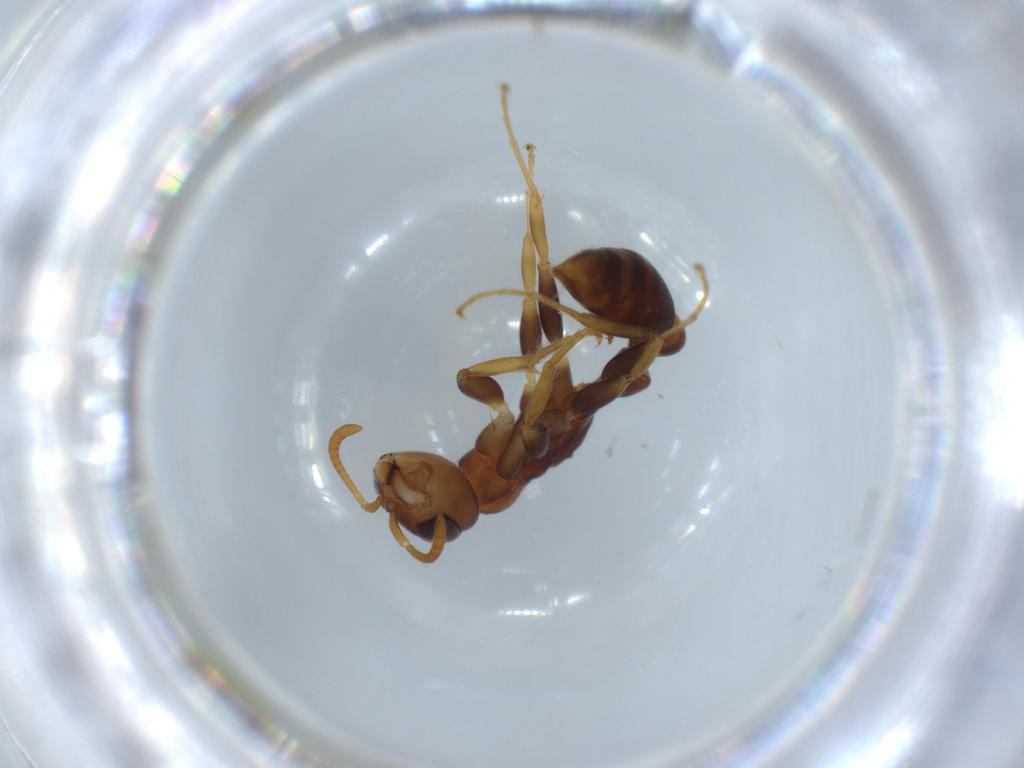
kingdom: Animalia
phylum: Arthropoda
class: Insecta
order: Hymenoptera
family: Formicidae
